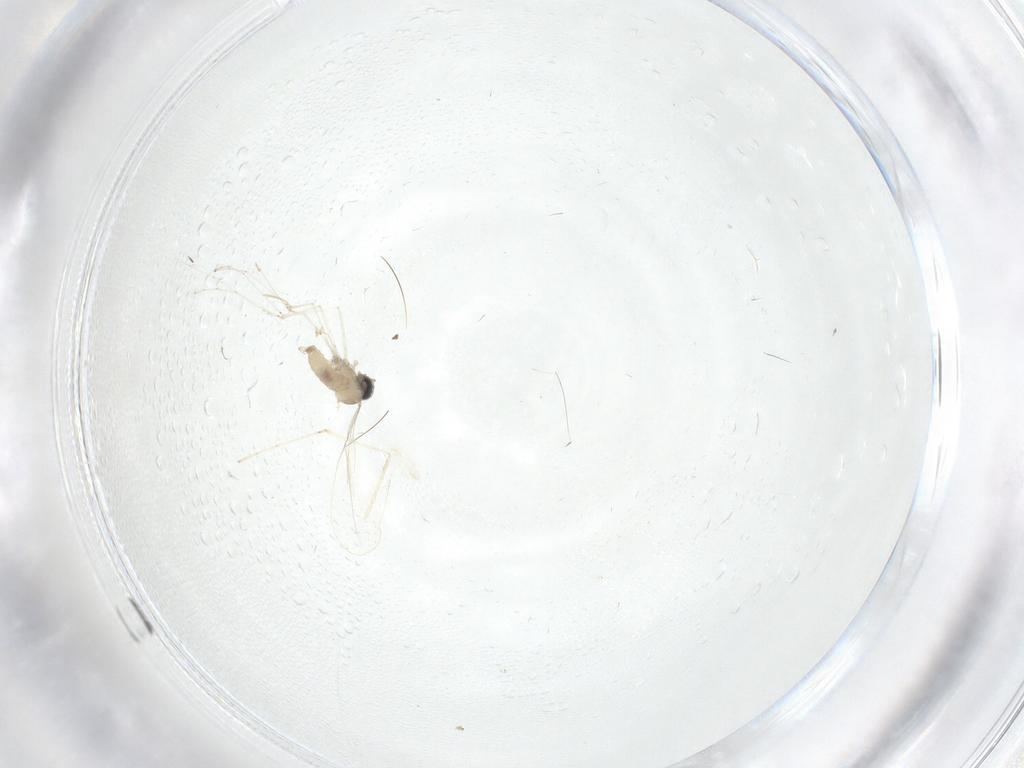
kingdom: Animalia
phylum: Arthropoda
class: Insecta
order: Diptera
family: Sciaridae
